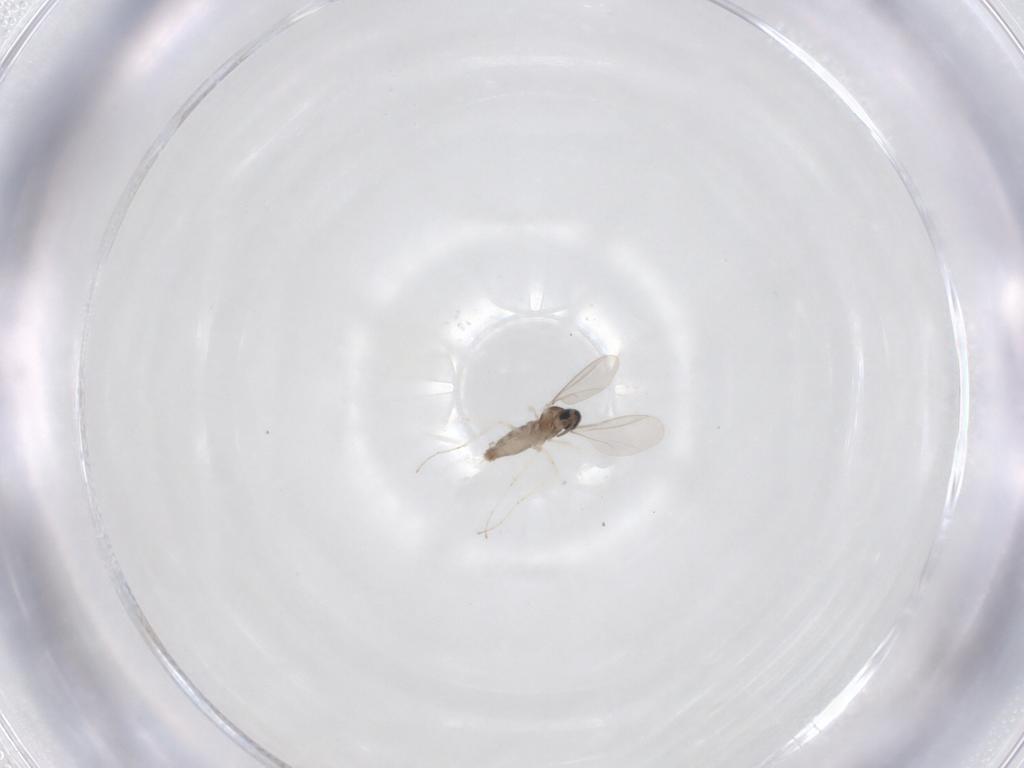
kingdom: Animalia
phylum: Arthropoda
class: Insecta
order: Diptera
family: Cecidomyiidae
